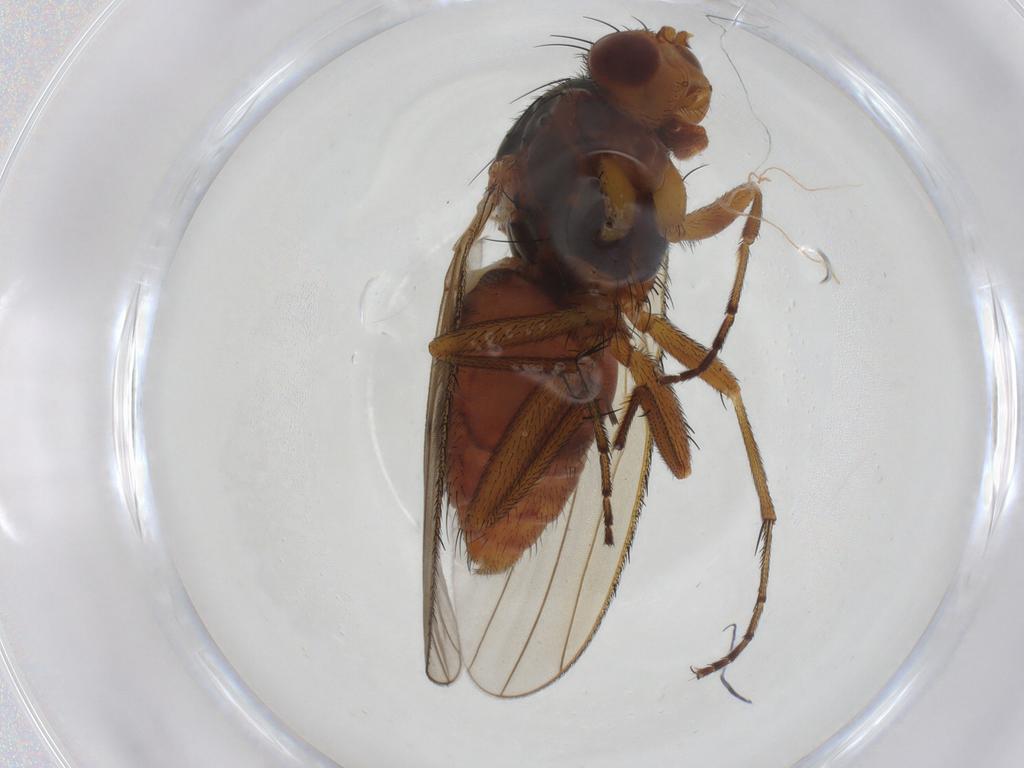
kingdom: Animalia
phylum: Arthropoda
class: Insecta
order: Diptera
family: Heleomyzidae
